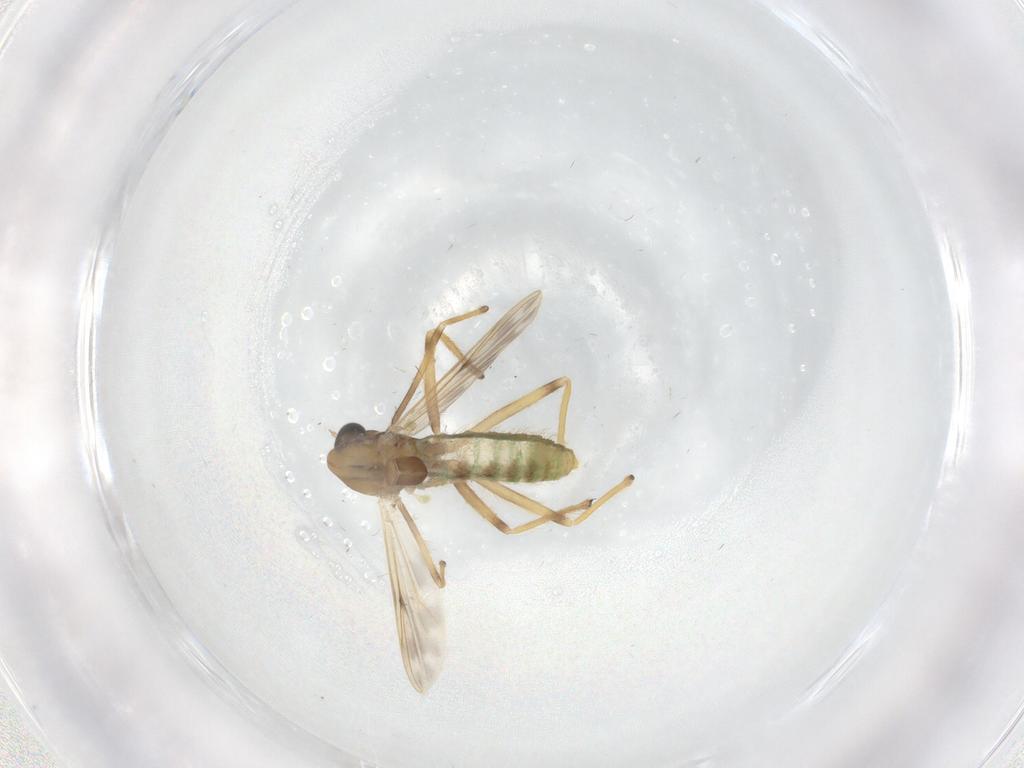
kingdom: Animalia
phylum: Arthropoda
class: Insecta
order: Diptera
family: Chironomidae
